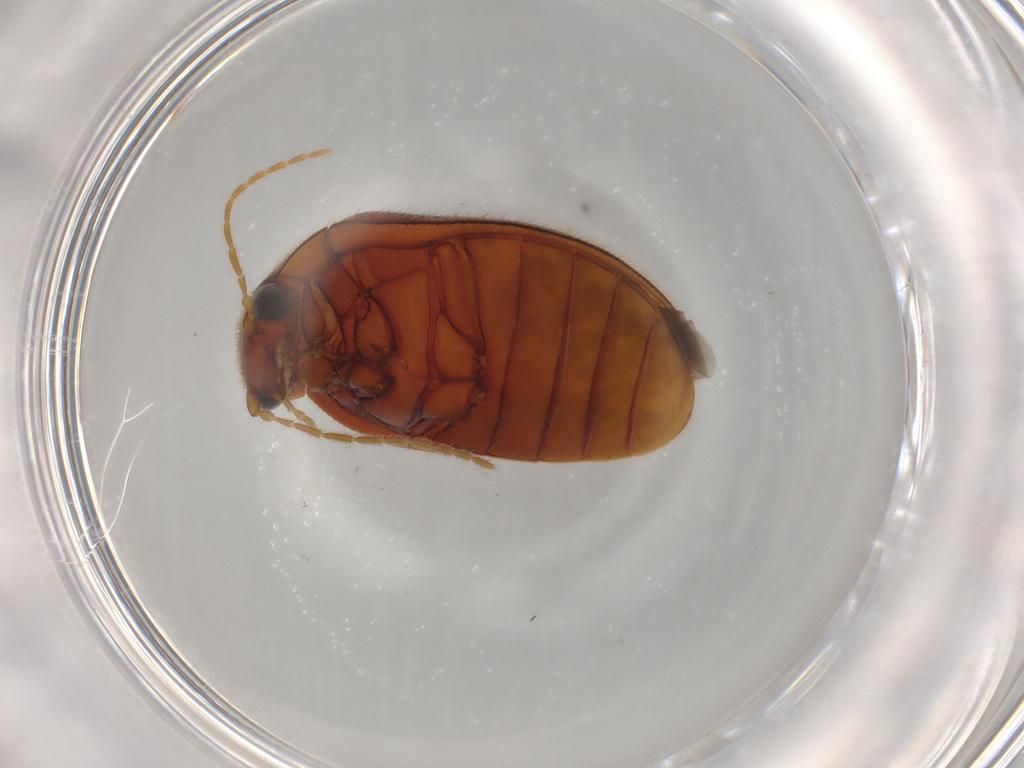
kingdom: Animalia
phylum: Arthropoda
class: Insecta
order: Coleoptera
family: Scirtidae
